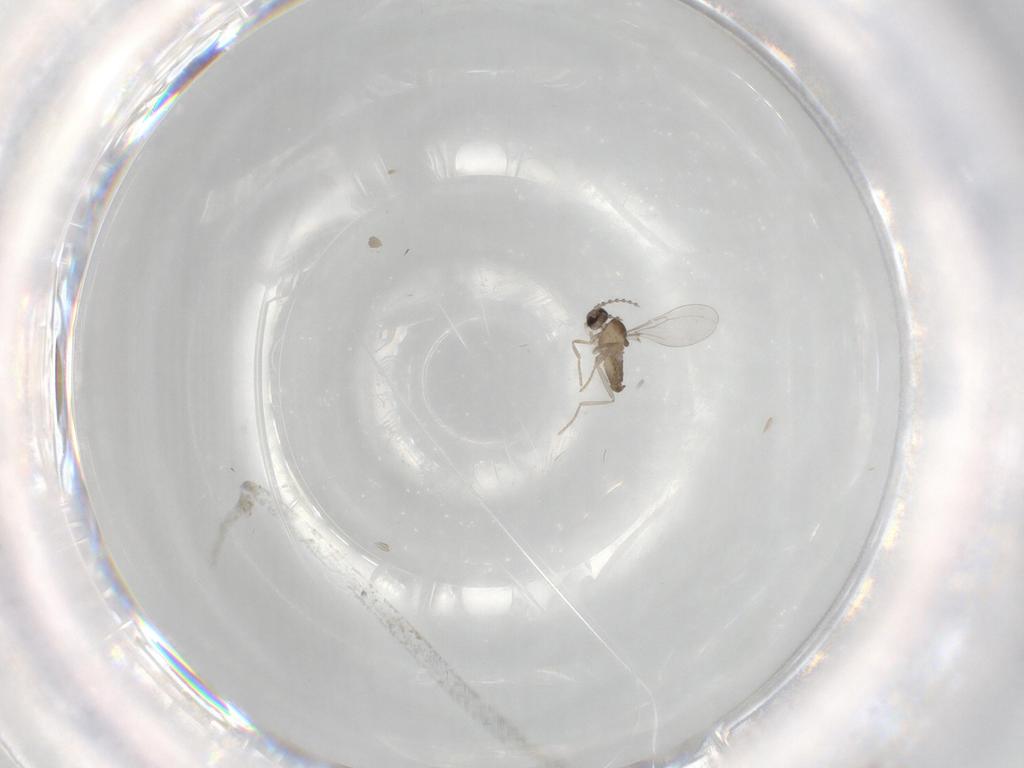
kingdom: Animalia
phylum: Arthropoda
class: Insecta
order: Diptera
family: Cecidomyiidae
